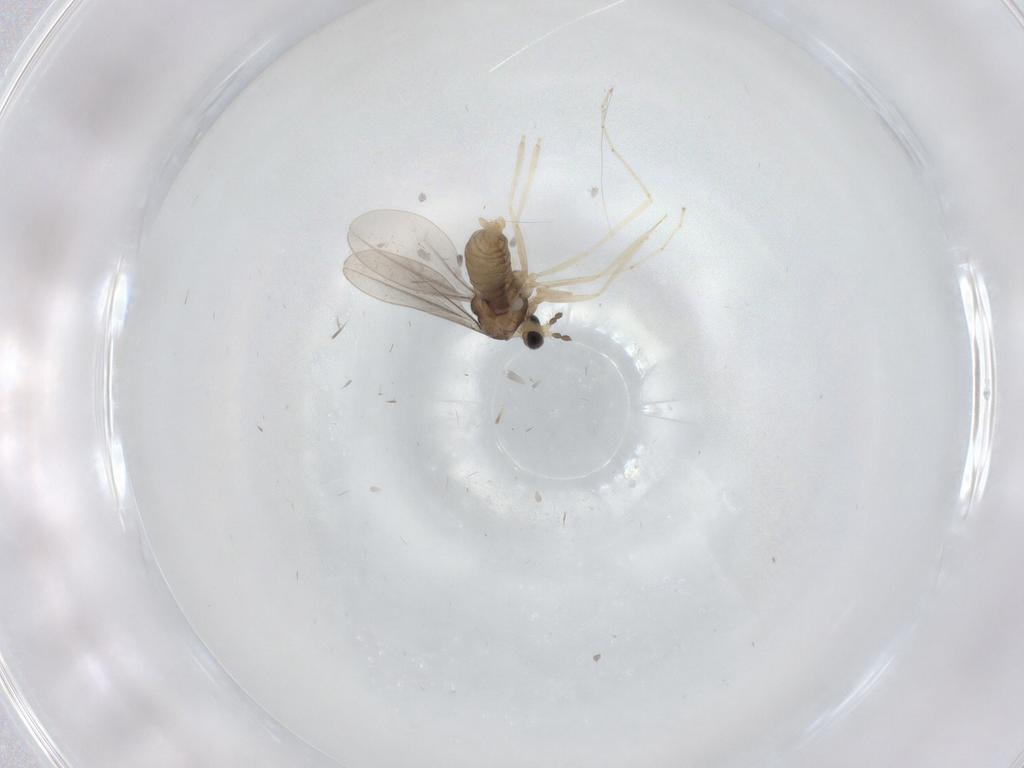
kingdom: Animalia
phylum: Arthropoda
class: Insecta
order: Diptera
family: Cecidomyiidae
